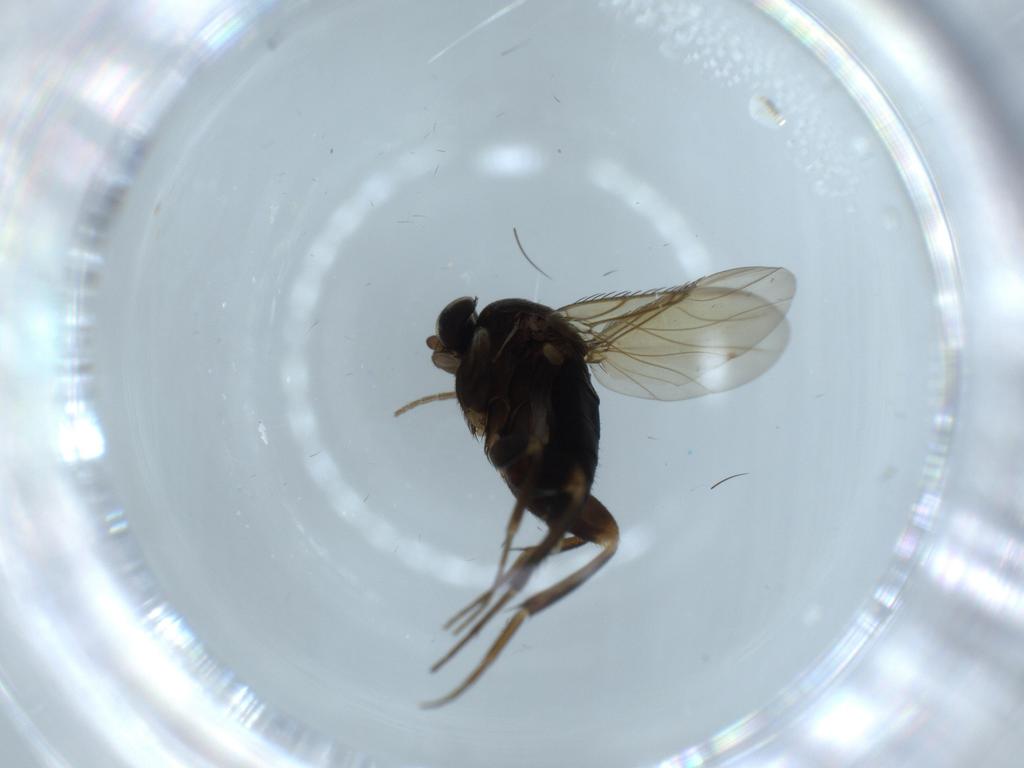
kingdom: Animalia
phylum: Arthropoda
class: Insecta
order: Diptera
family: Phoridae
